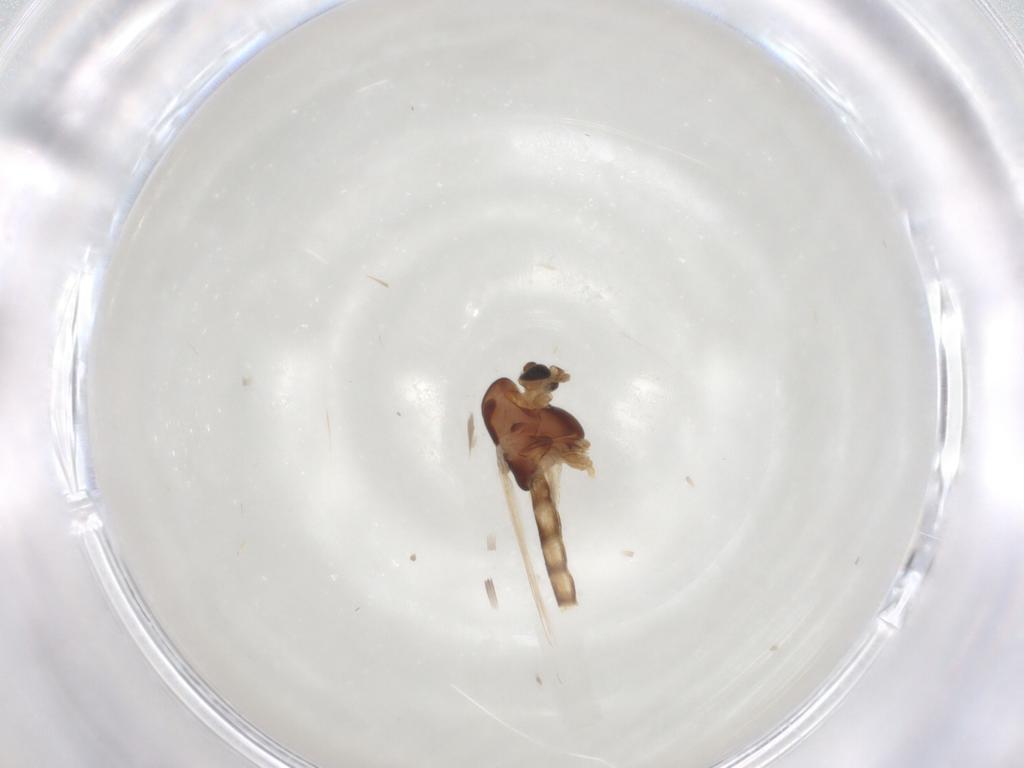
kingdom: Animalia
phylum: Arthropoda
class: Insecta
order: Diptera
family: Chironomidae
